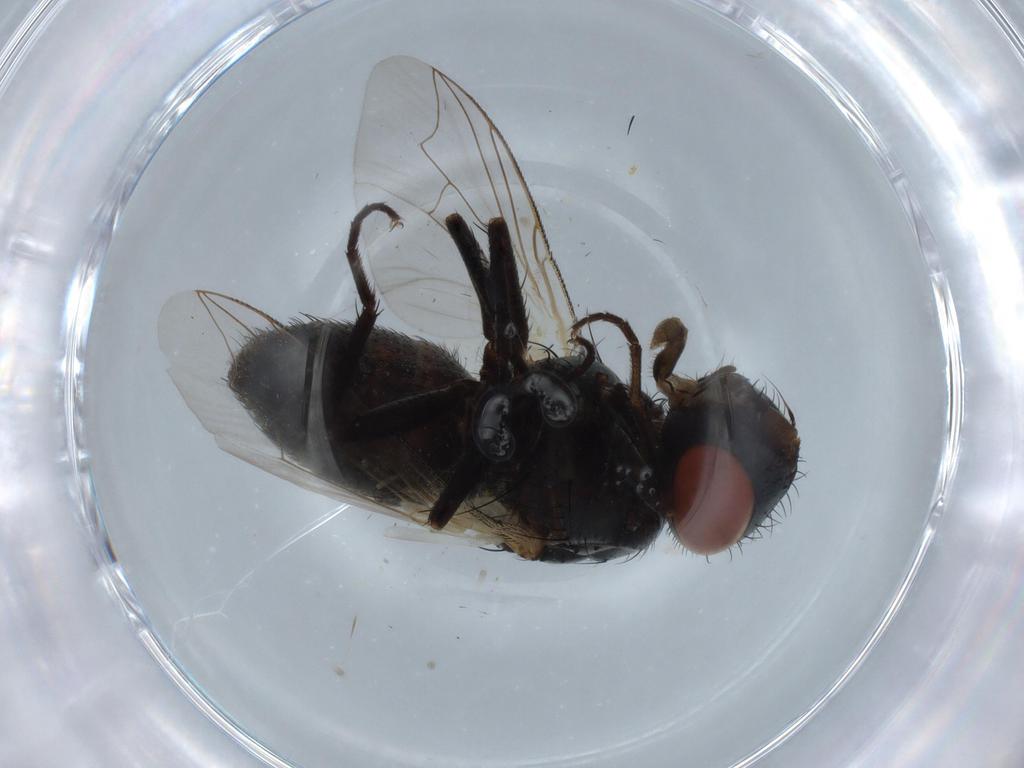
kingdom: Animalia
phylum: Arthropoda
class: Insecta
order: Diptera
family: Sarcophagidae
